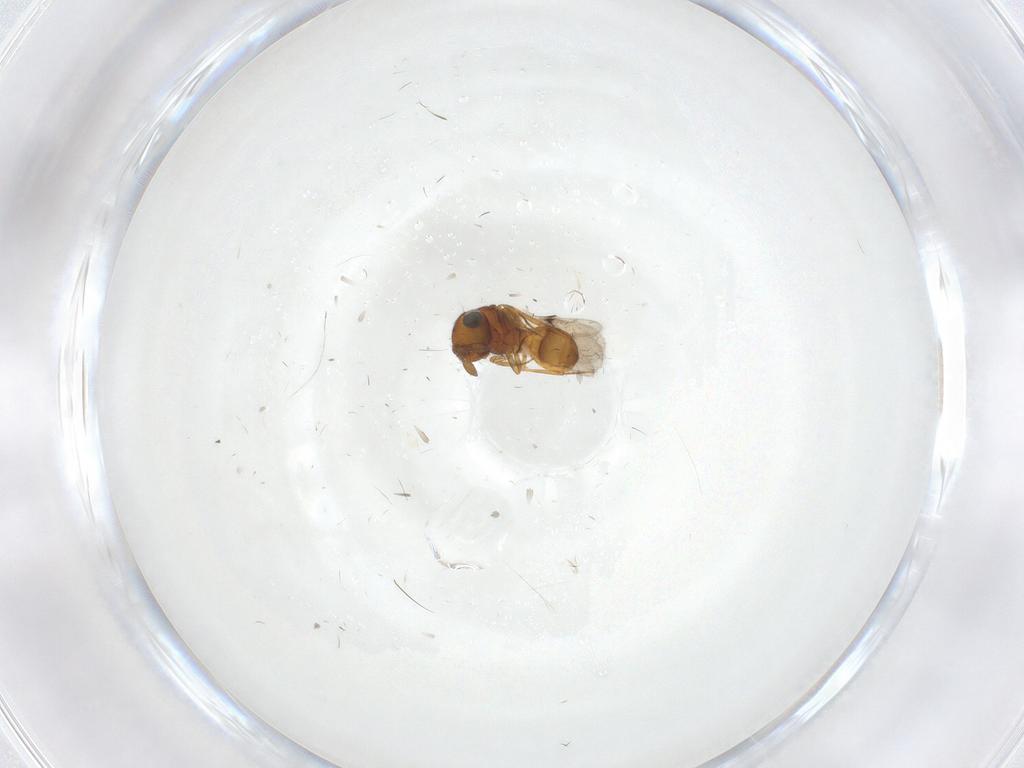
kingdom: Animalia
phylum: Arthropoda
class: Insecta
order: Hymenoptera
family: Scelionidae
